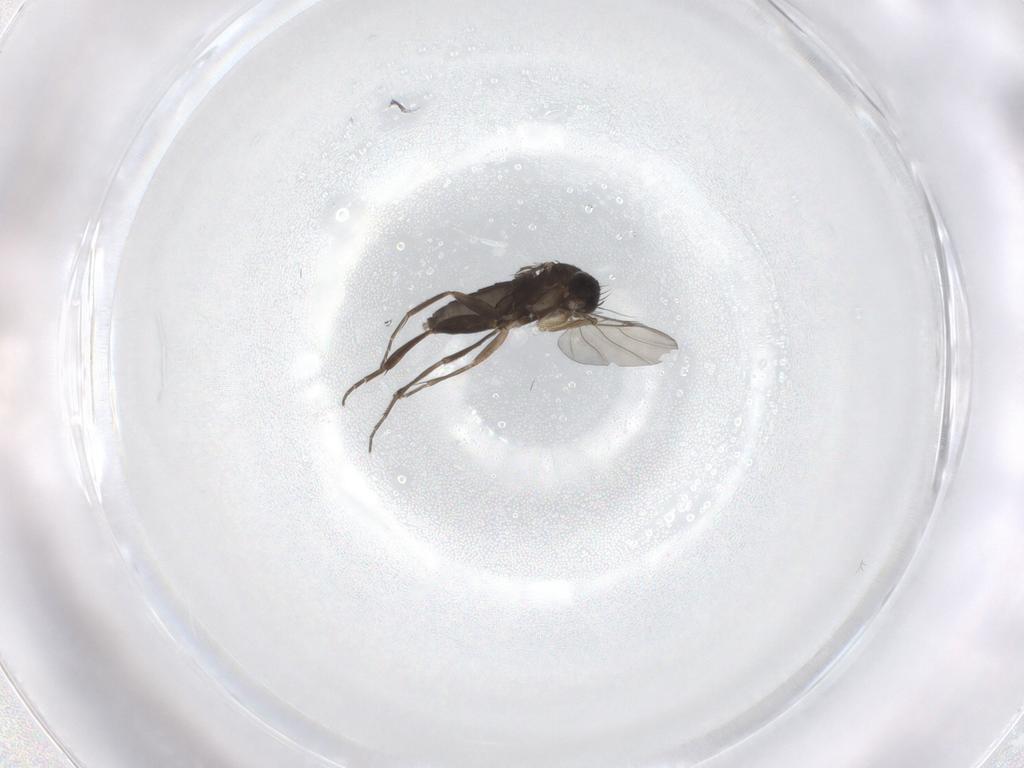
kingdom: Animalia
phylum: Arthropoda
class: Insecta
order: Diptera
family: Phoridae
